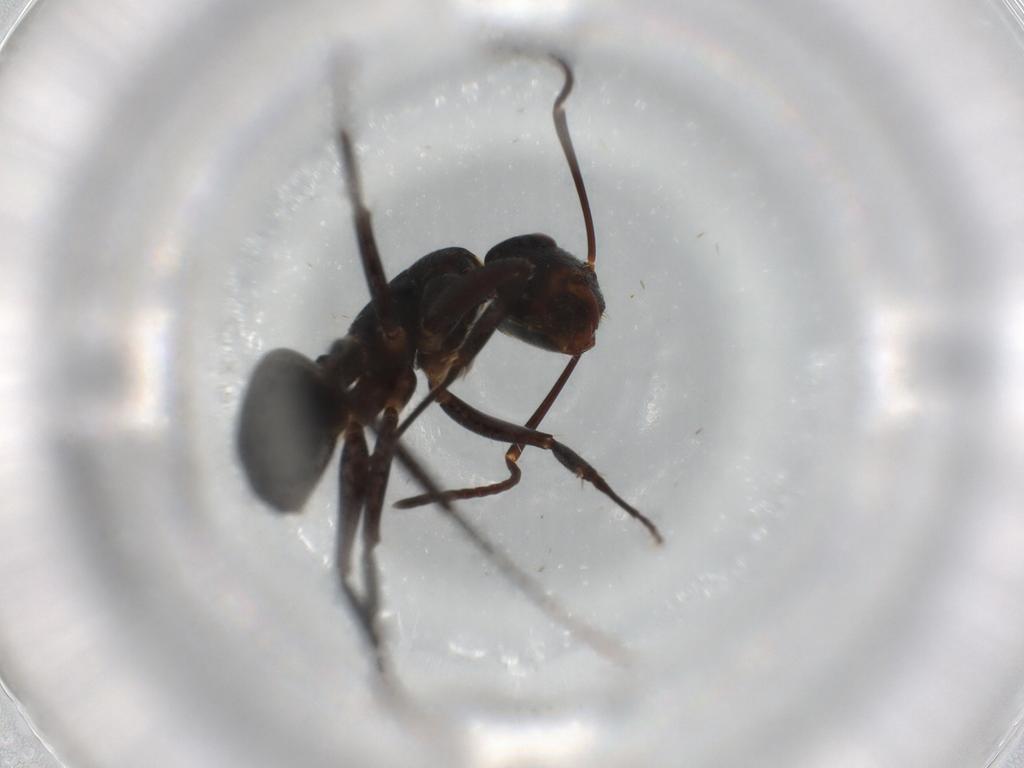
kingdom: Animalia
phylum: Arthropoda
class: Insecta
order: Hymenoptera
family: Formicidae
